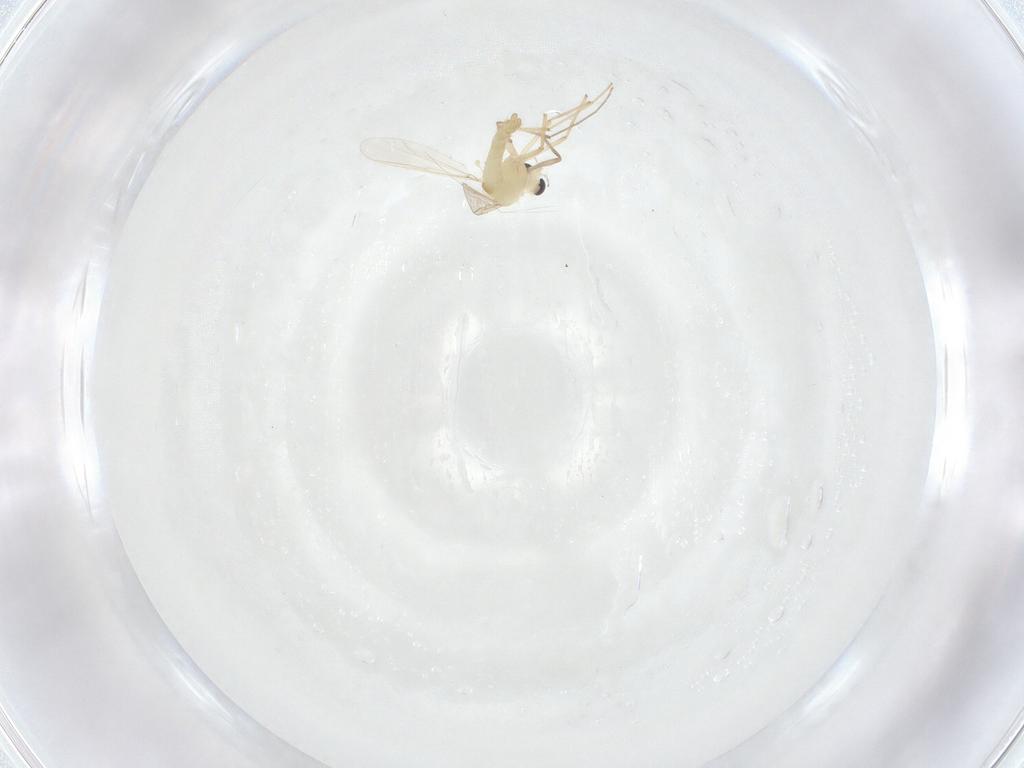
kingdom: Animalia
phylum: Arthropoda
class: Insecta
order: Diptera
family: Chironomidae
